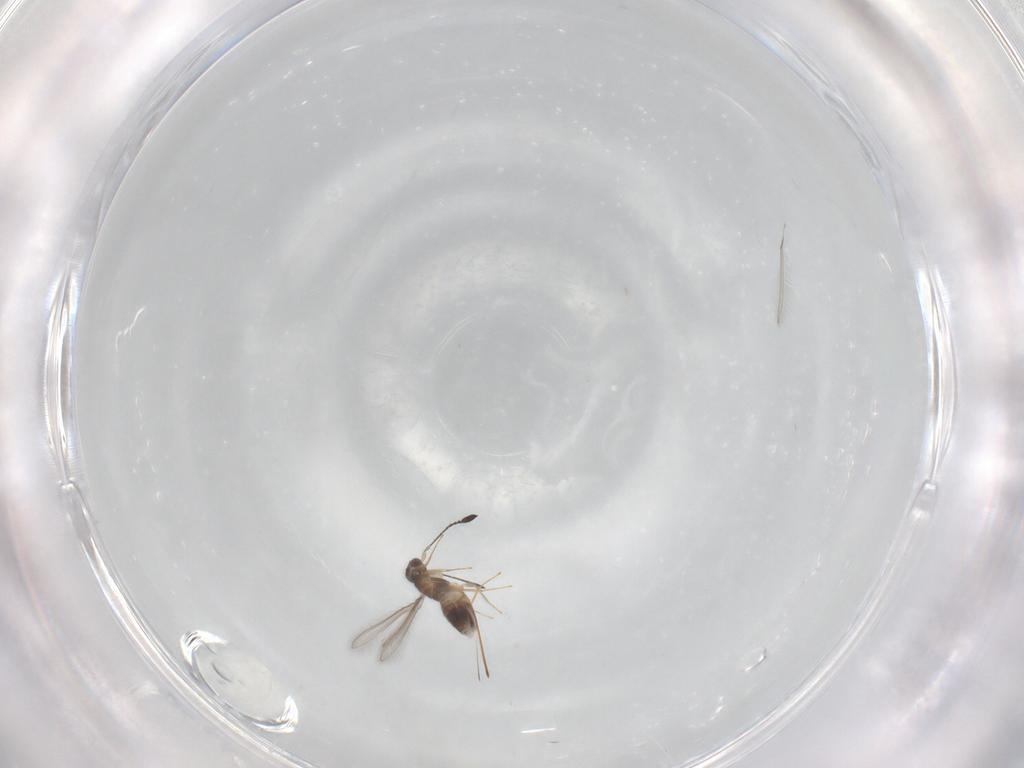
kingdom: Animalia
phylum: Arthropoda
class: Insecta
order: Hymenoptera
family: Mymaridae
